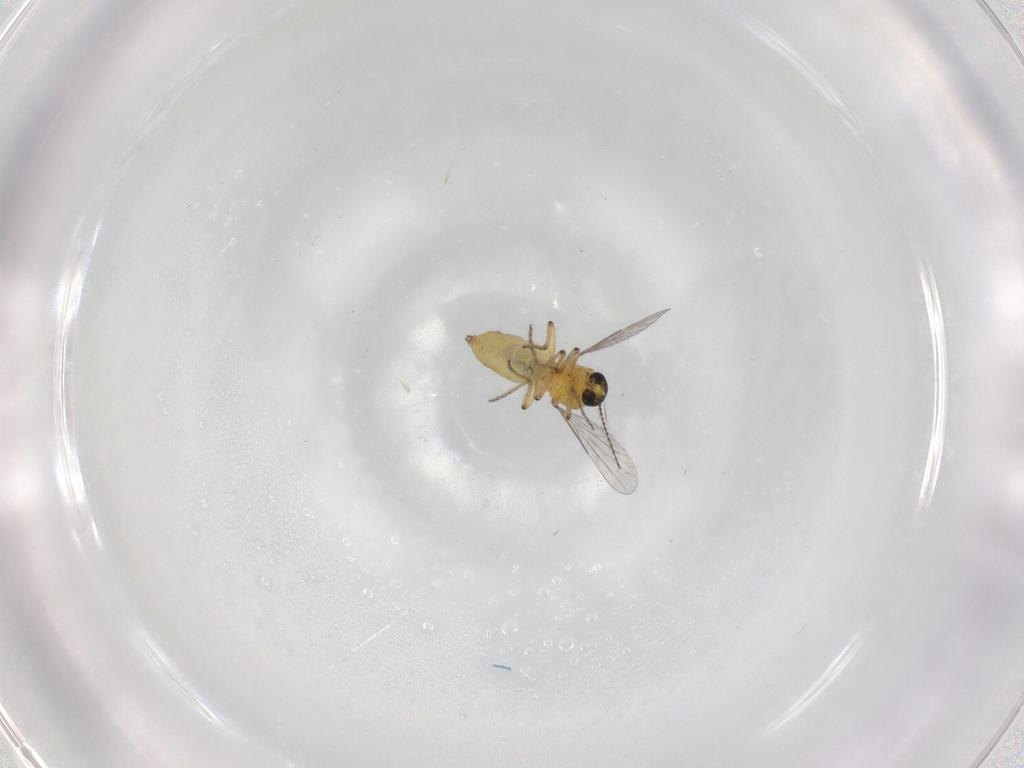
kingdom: Animalia
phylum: Arthropoda
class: Insecta
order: Diptera
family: Ceratopogonidae
